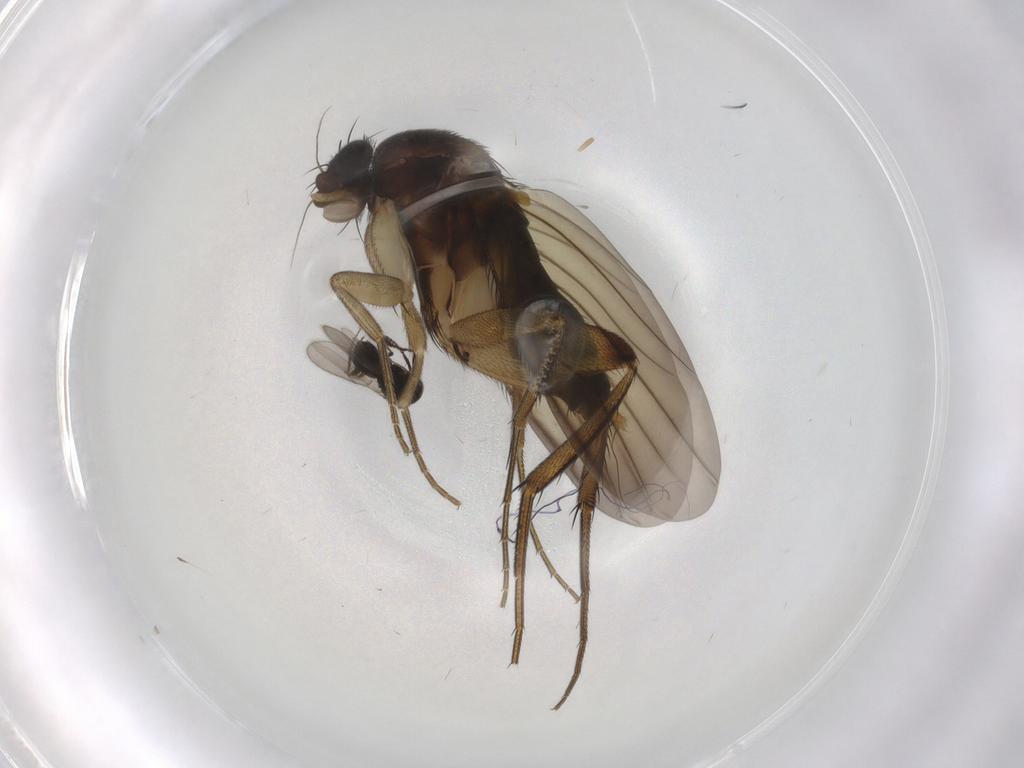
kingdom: Animalia
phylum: Arthropoda
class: Insecta
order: Diptera
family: Phoridae
